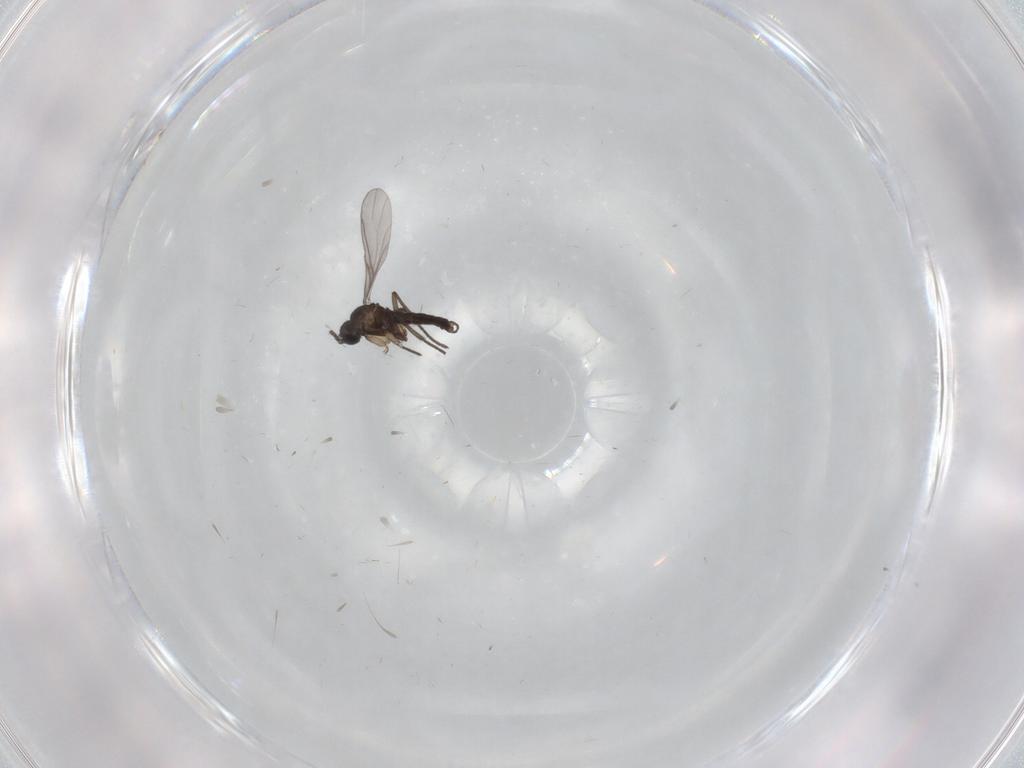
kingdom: Animalia
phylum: Arthropoda
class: Insecta
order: Diptera
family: Sciaridae
